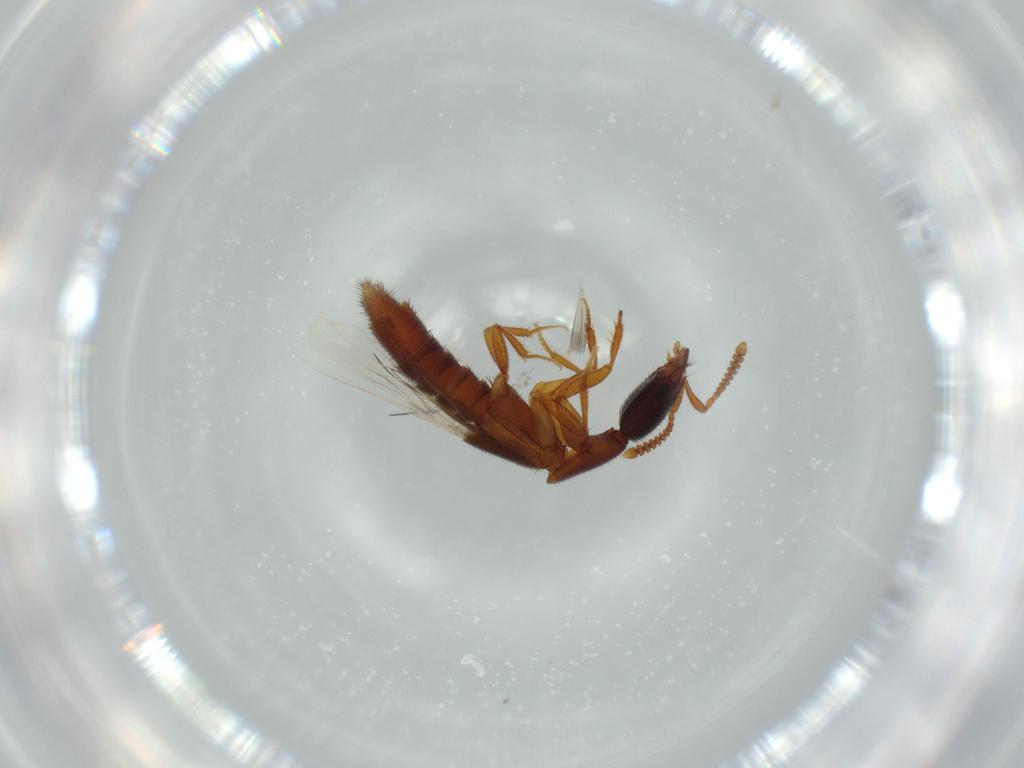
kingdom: Animalia
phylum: Arthropoda
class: Insecta
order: Coleoptera
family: Staphylinidae
